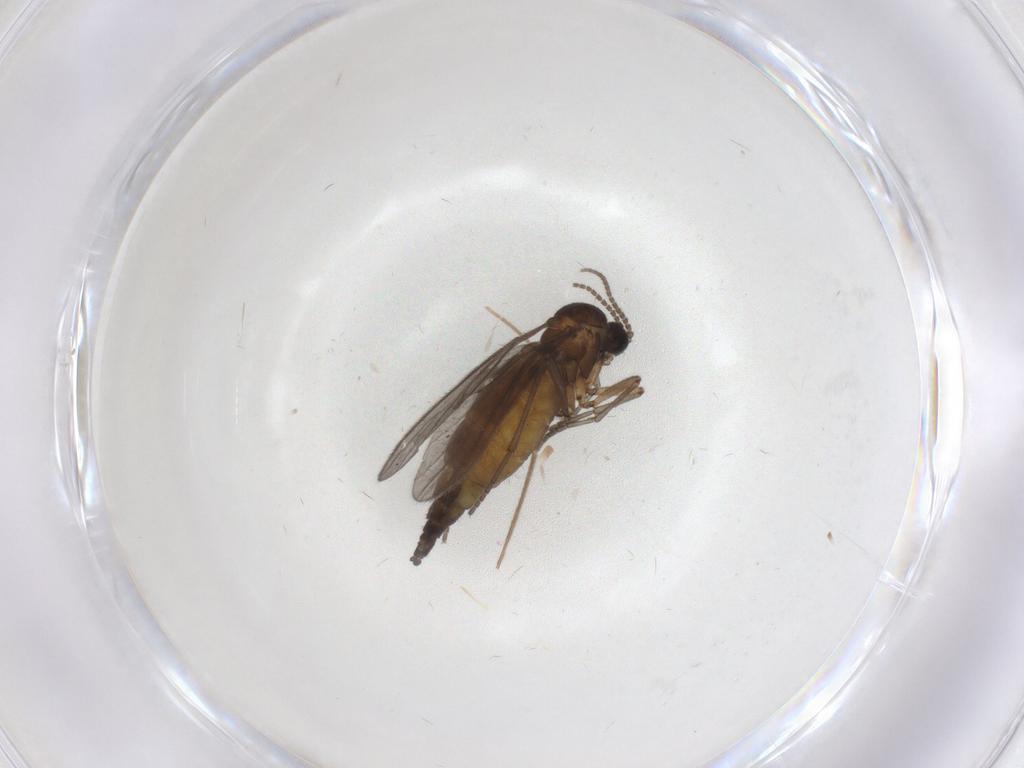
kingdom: Animalia
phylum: Arthropoda
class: Insecta
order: Diptera
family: Sciaridae
